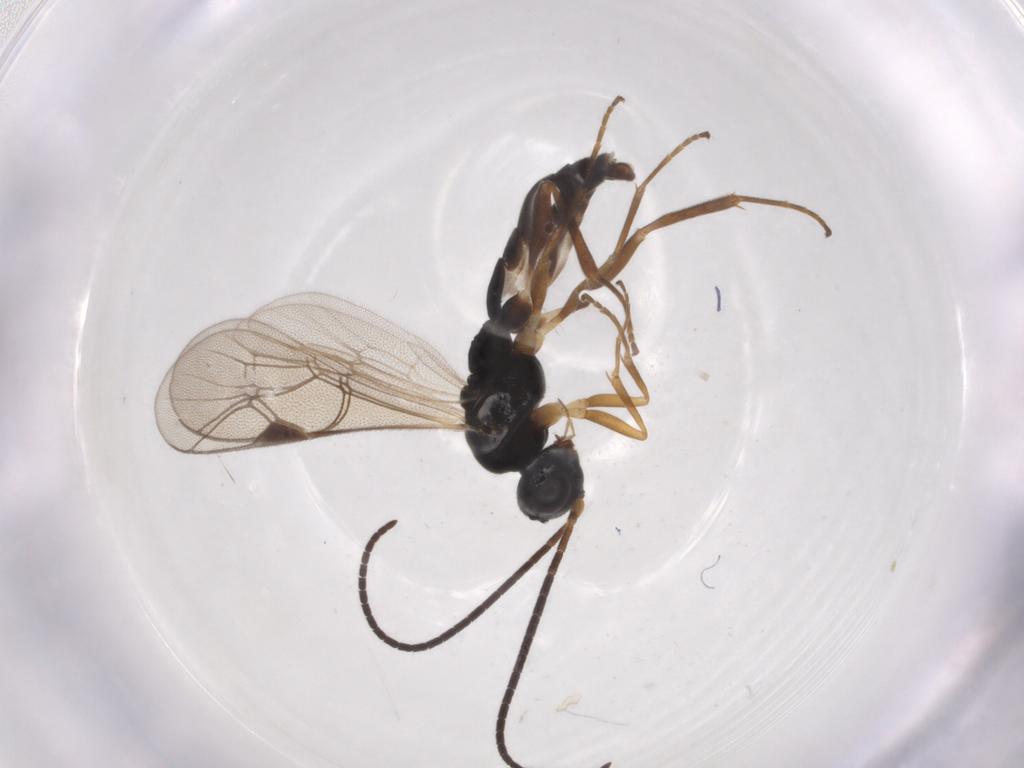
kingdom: Animalia
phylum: Arthropoda
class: Insecta
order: Hymenoptera
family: Ichneumonidae
